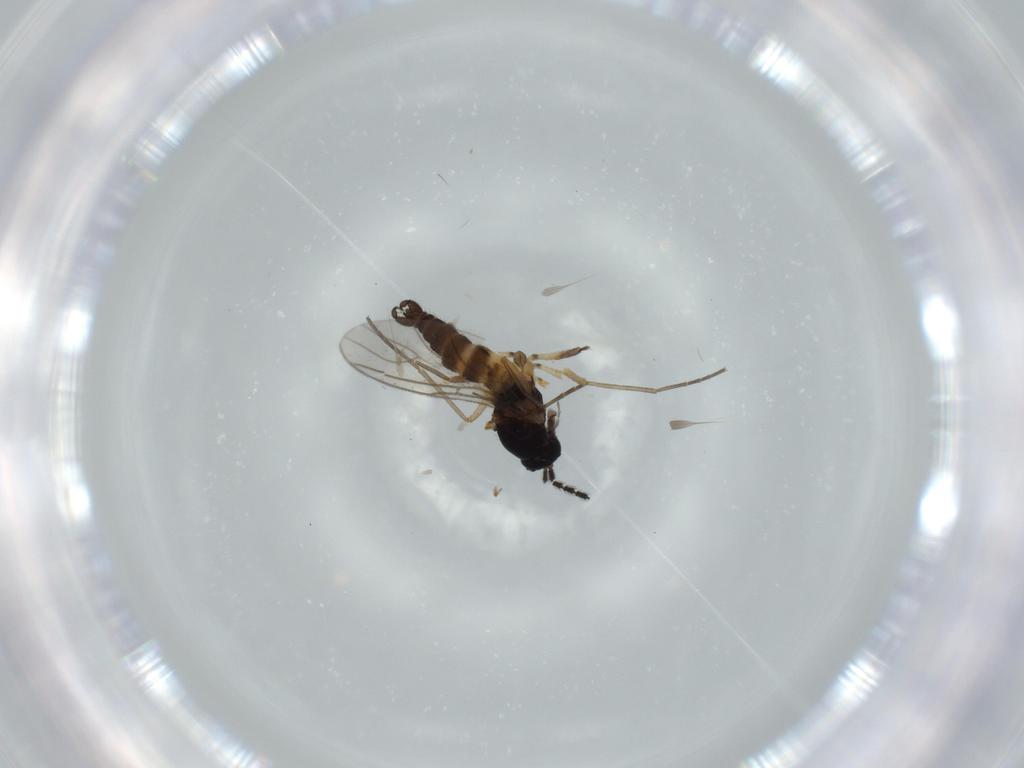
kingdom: Animalia
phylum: Arthropoda
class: Insecta
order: Diptera
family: Sciaridae
